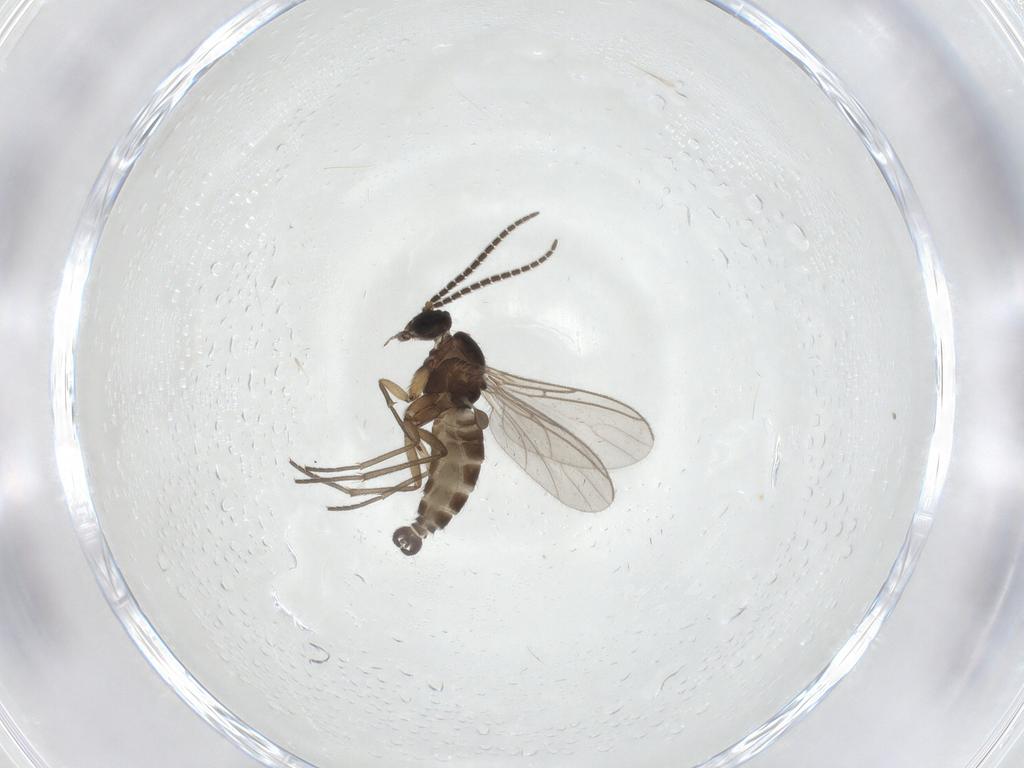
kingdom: Animalia
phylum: Arthropoda
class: Insecta
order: Diptera
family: Sciaridae
